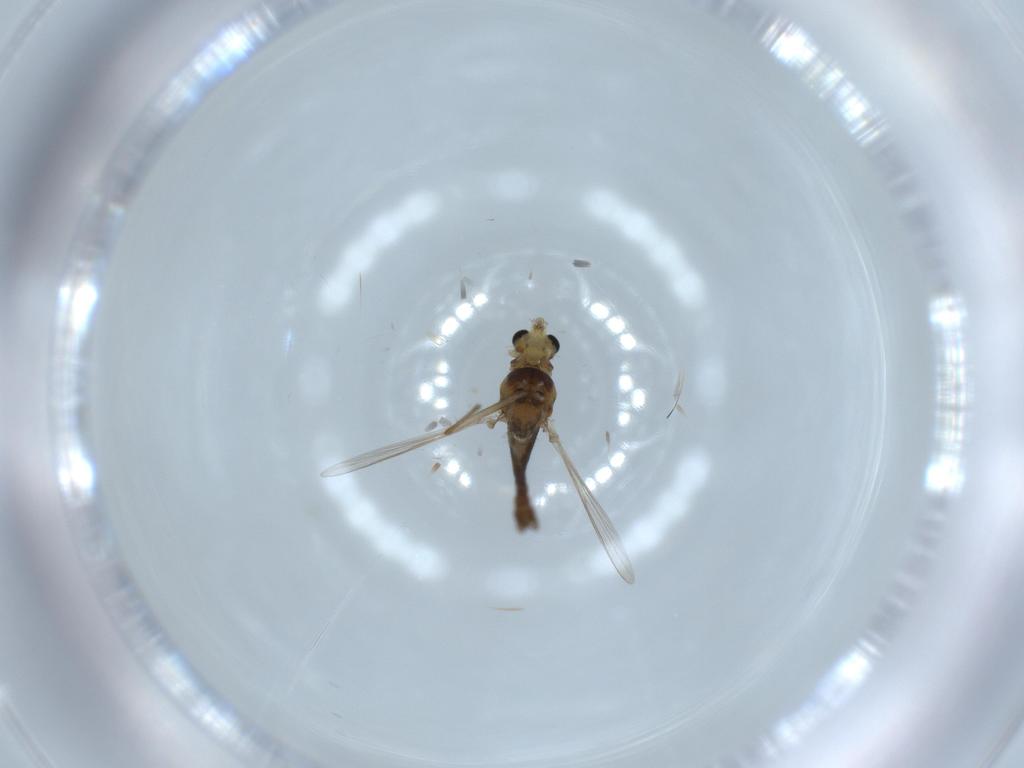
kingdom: Animalia
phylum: Arthropoda
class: Insecta
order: Diptera
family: Chironomidae
